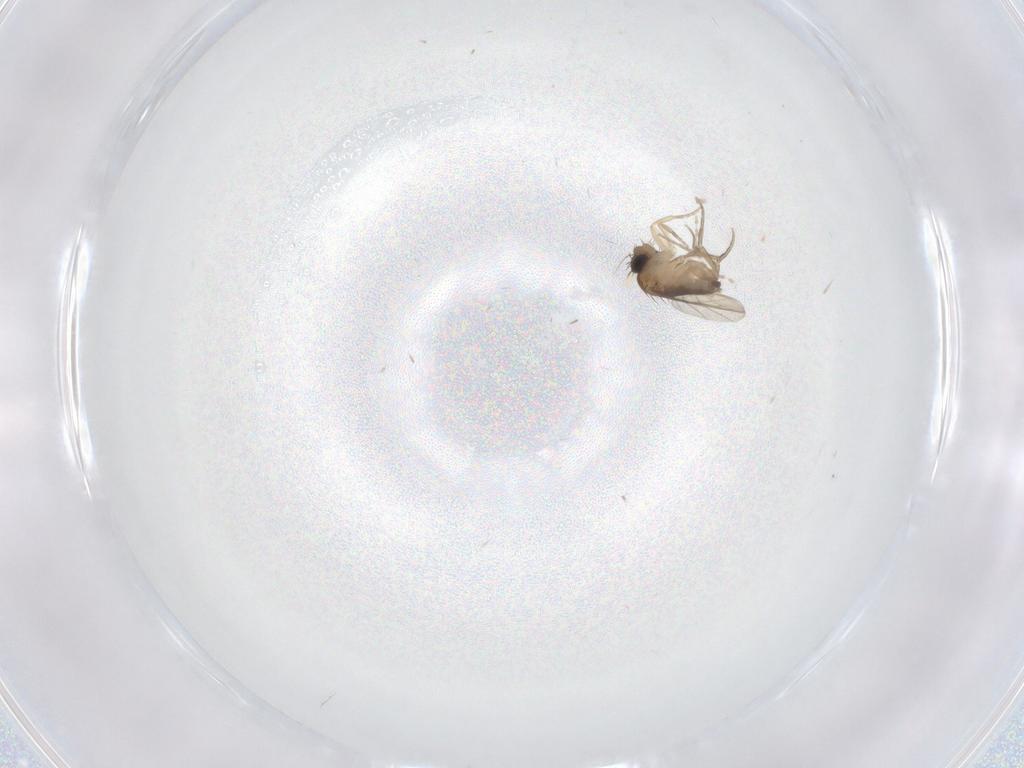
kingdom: Animalia
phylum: Arthropoda
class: Insecta
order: Diptera
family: Phoridae
